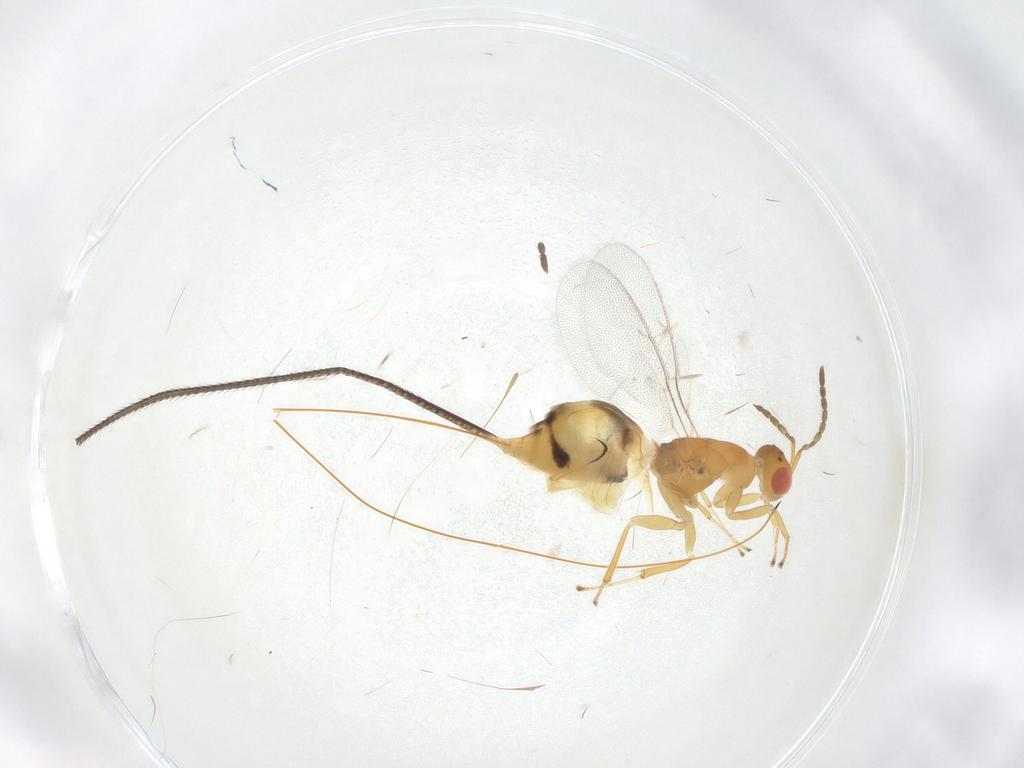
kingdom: Animalia
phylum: Arthropoda
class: Insecta
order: Hymenoptera
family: Pteromalidae
